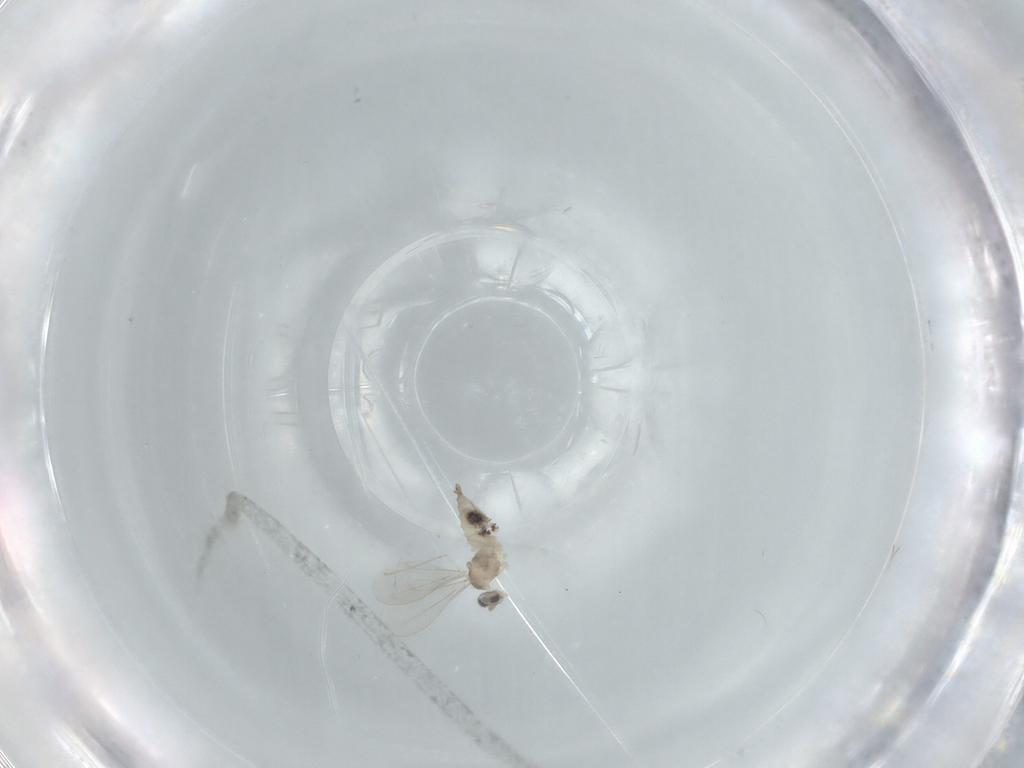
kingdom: Animalia
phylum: Arthropoda
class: Insecta
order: Diptera
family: Cecidomyiidae
